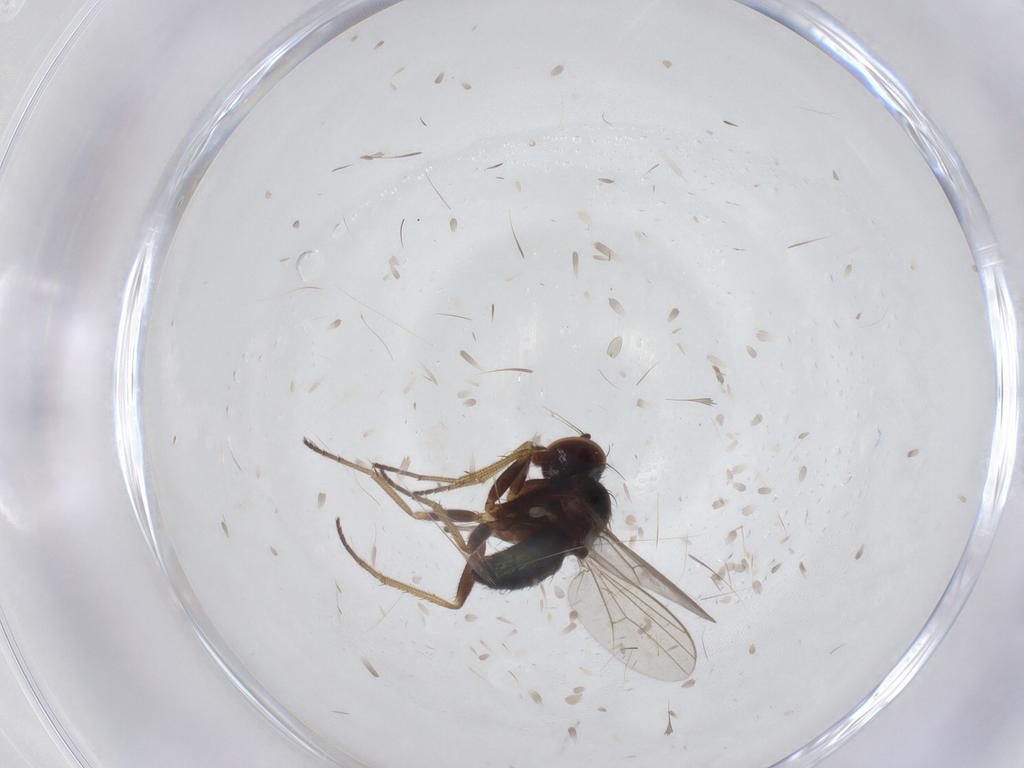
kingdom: Animalia
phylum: Arthropoda
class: Insecta
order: Diptera
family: Dolichopodidae
